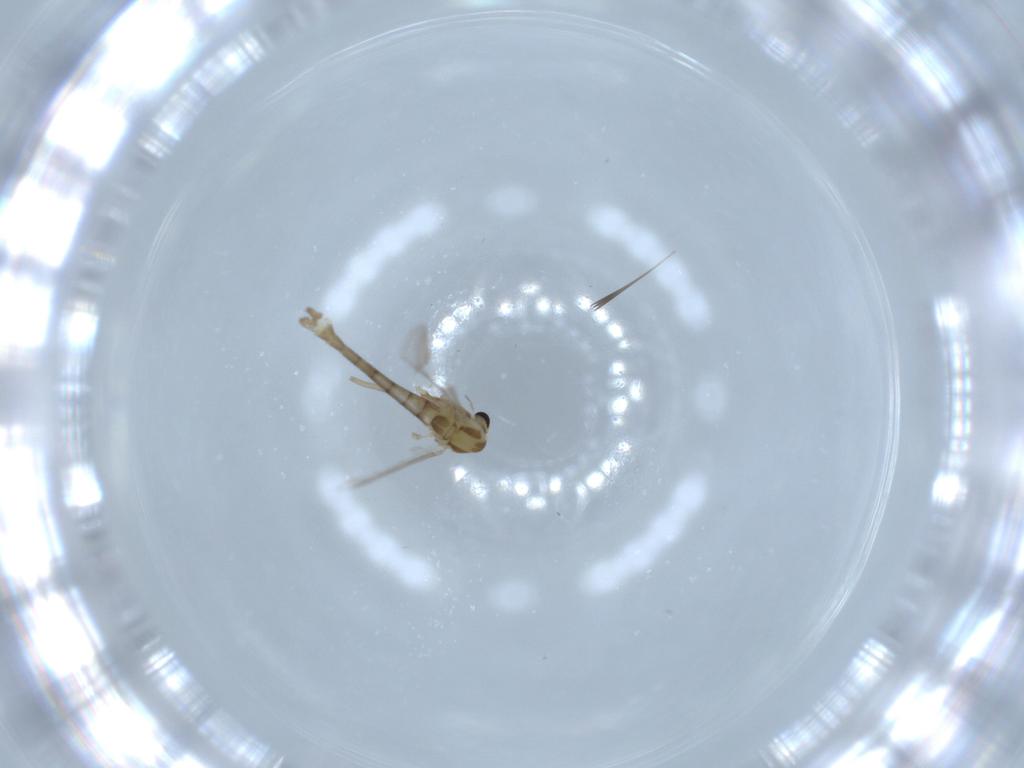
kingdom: Animalia
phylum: Arthropoda
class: Insecta
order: Diptera
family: Chironomidae
